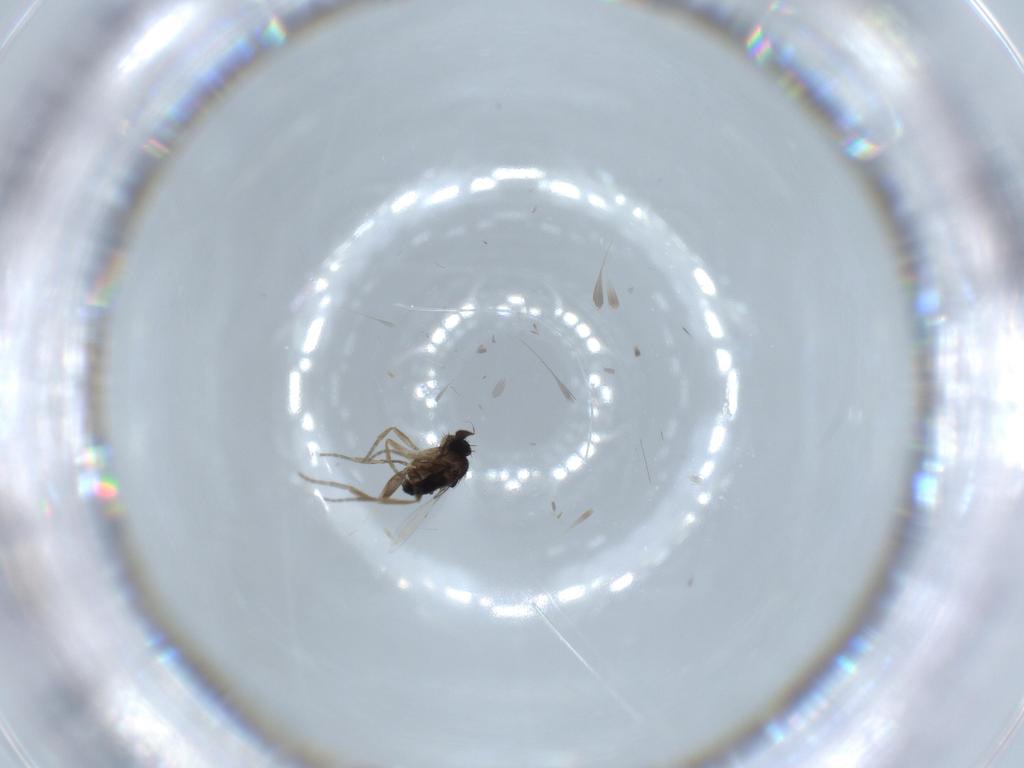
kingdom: Animalia
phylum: Arthropoda
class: Insecta
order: Diptera
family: Phoridae
